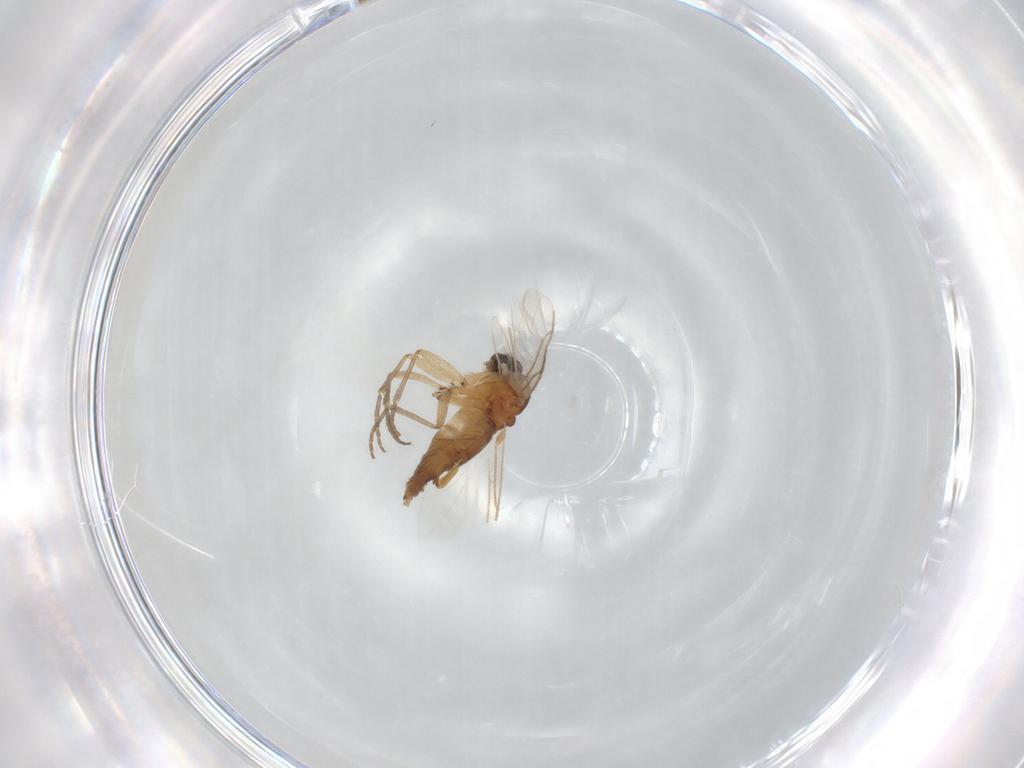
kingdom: Animalia
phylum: Arthropoda
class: Insecta
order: Diptera
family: Sciaridae
